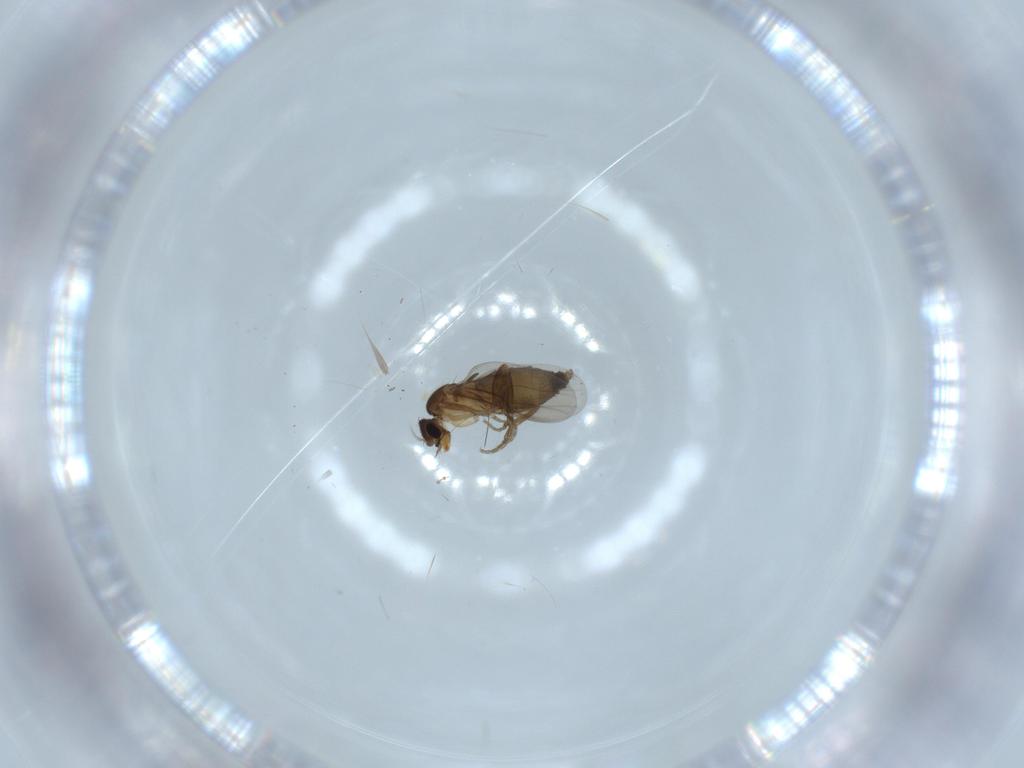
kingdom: Animalia
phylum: Arthropoda
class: Insecta
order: Diptera
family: Cecidomyiidae
